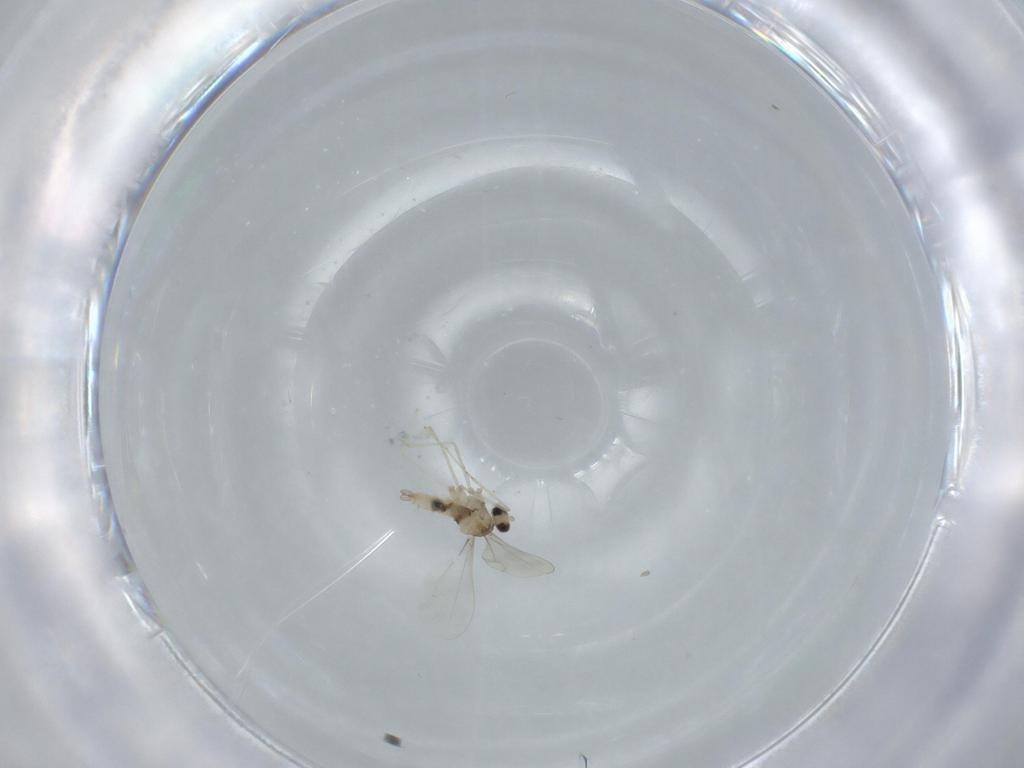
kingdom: Animalia
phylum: Arthropoda
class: Insecta
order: Diptera
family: Cecidomyiidae
